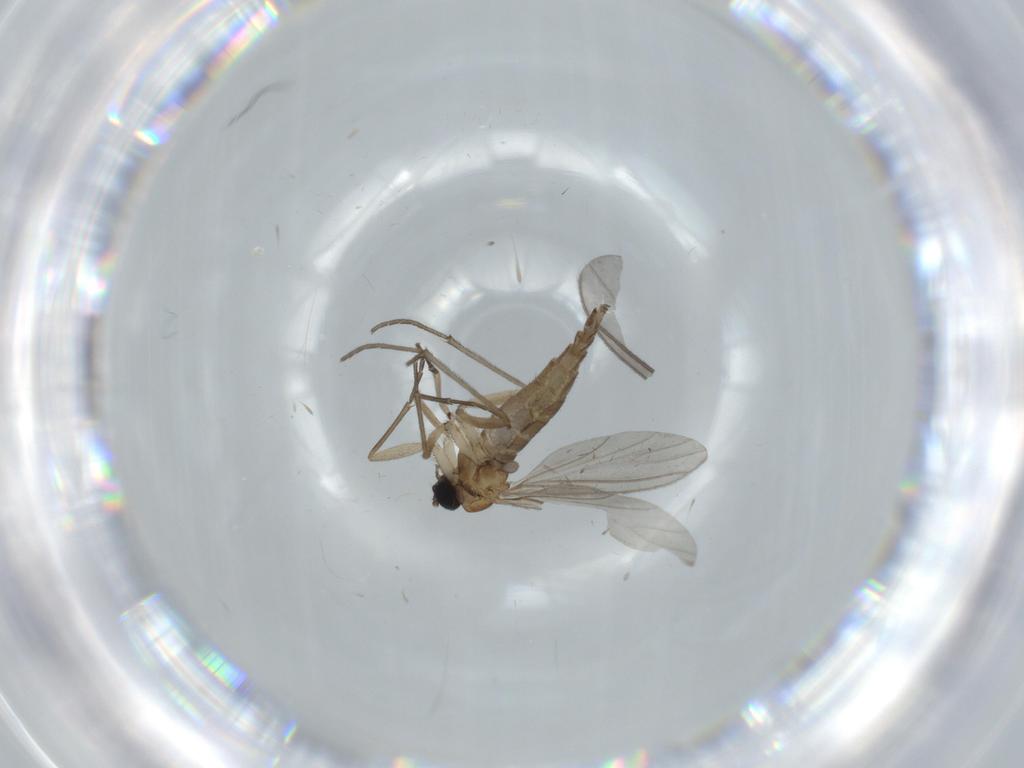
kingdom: Animalia
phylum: Arthropoda
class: Insecta
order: Diptera
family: Sciaridae
